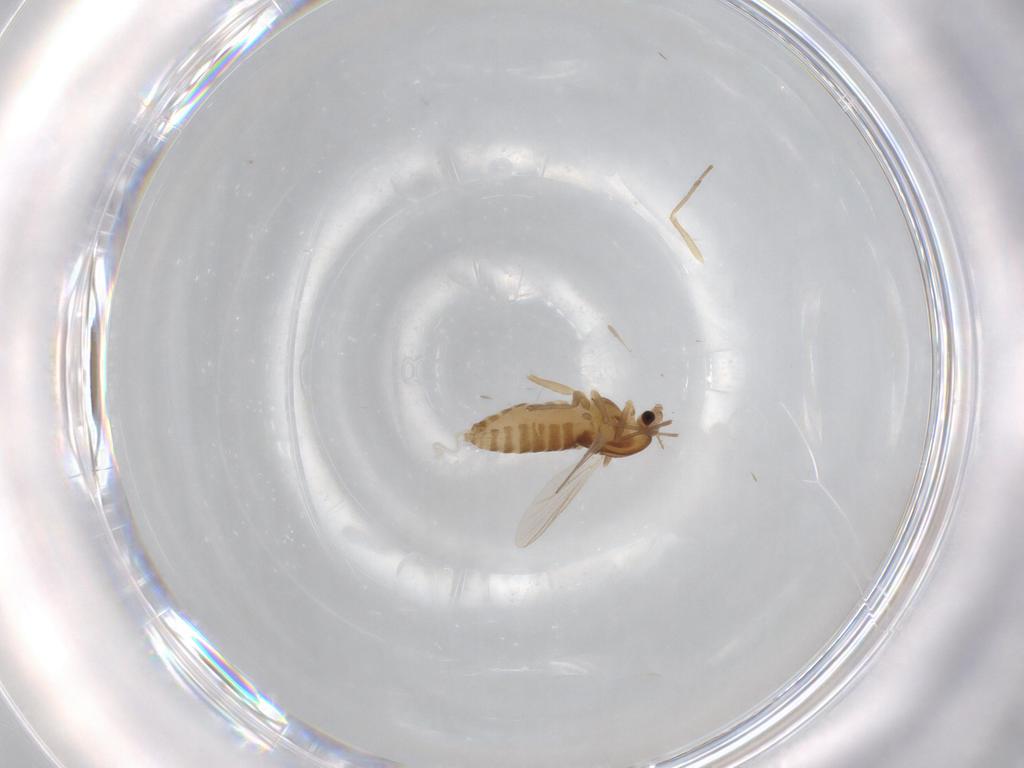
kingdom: Animalia
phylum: Arthropoda
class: Insecta
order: Diptera
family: Chironomidae
